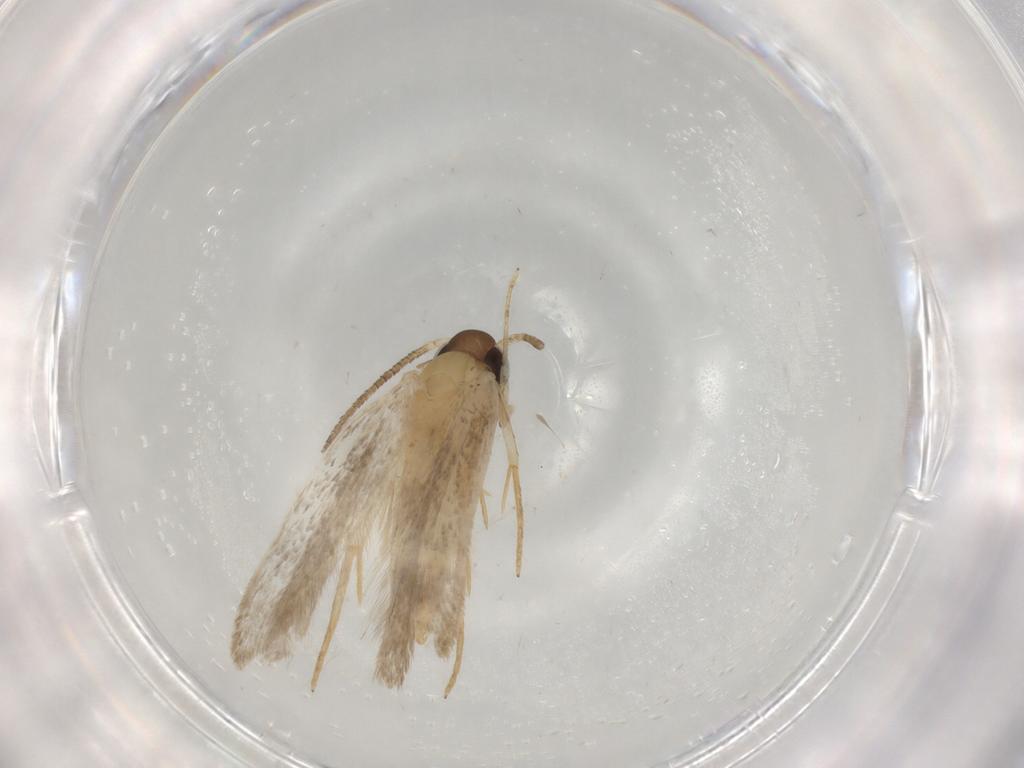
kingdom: Animalia
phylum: Arthropoda
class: Insecta
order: Lepidoptera
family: Autostichidae
